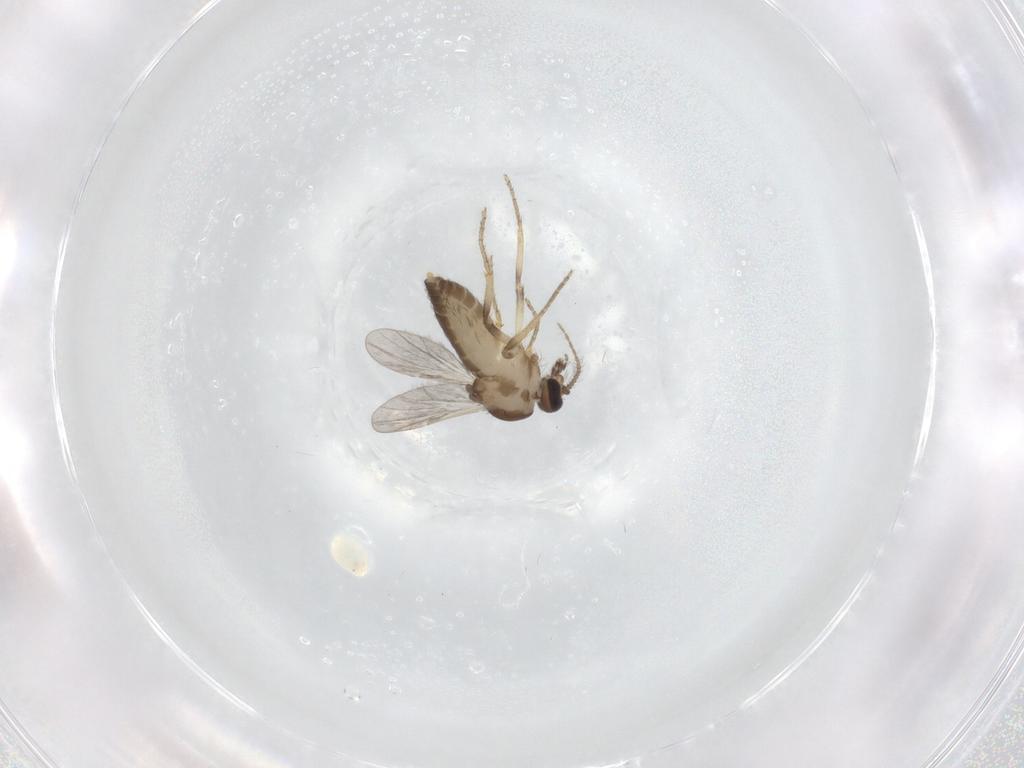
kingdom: Animalia
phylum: Arthropoda
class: Insecta
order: Diptera
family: Ceratopogonidae
